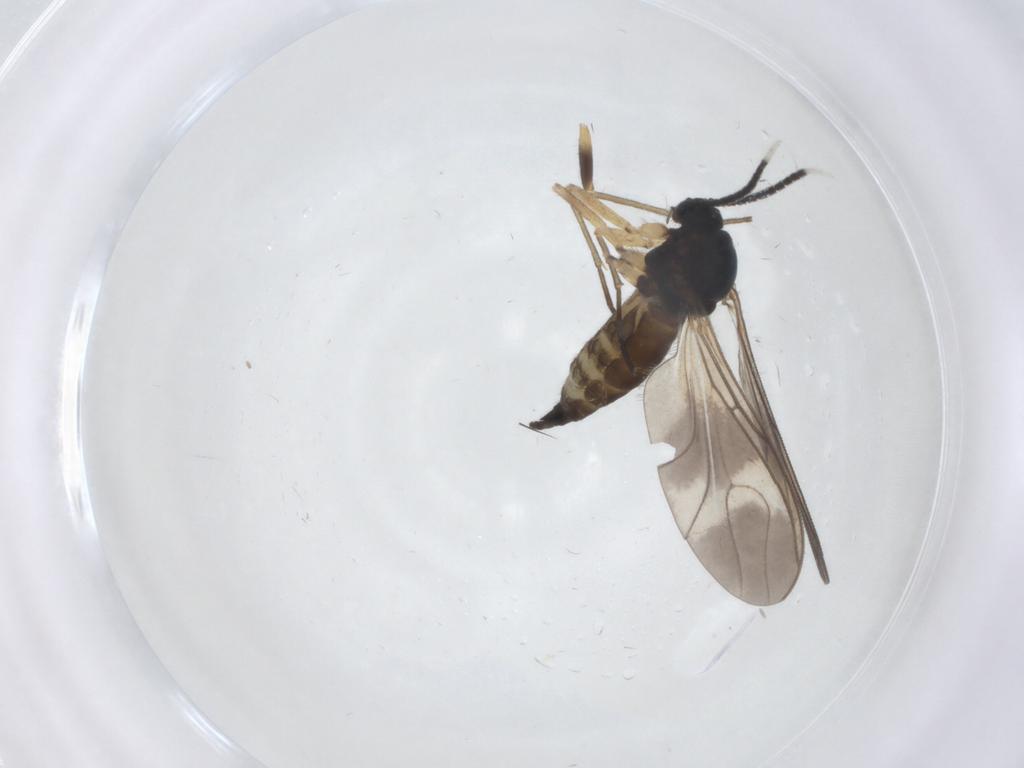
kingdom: Animalia
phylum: Arthropoda
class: Insecta
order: Diptera
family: Sciaridae
